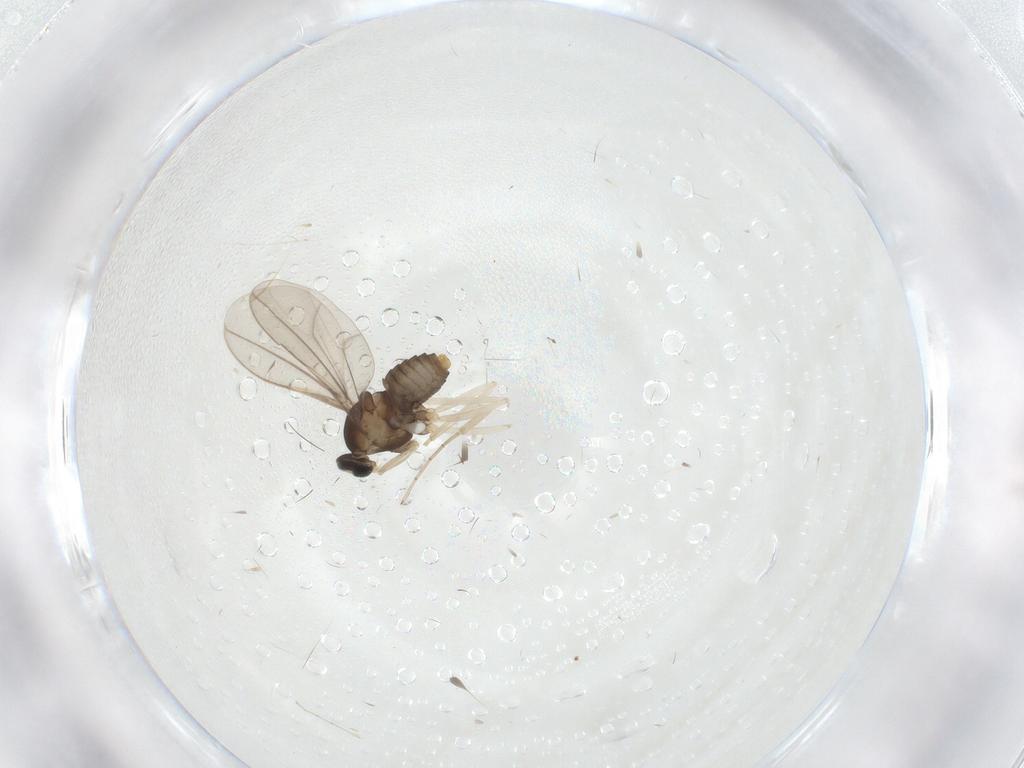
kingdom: Animalia
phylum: Arthropoda
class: Insecta
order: Diptera
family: Cecidomyiidae
